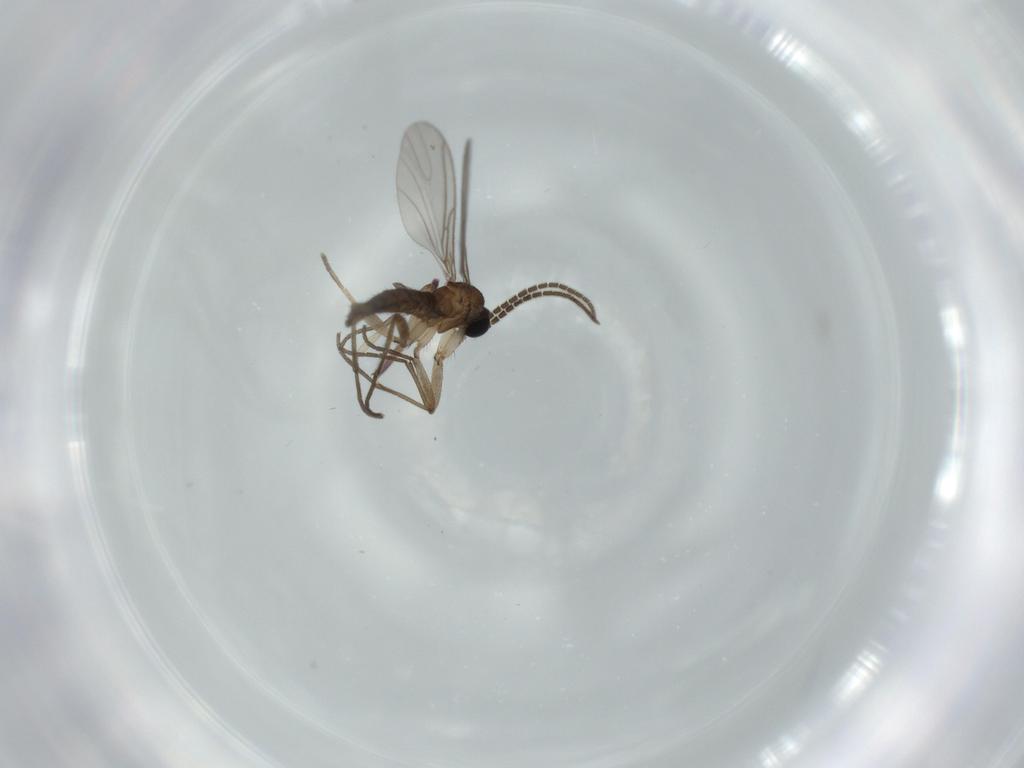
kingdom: Animalia
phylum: Arthropoda
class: Insecta
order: Diptera
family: Sciaridae
